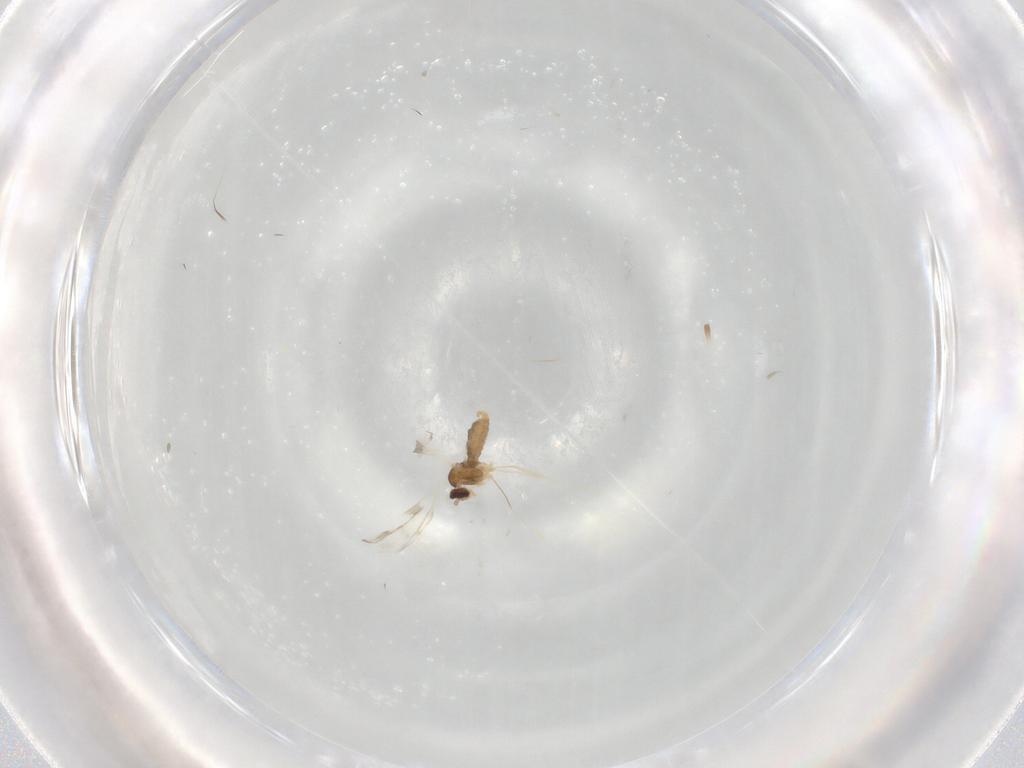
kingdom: Animalia
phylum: Arthropoda
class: Insecta
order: Diptera
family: Cecidomyiidae
